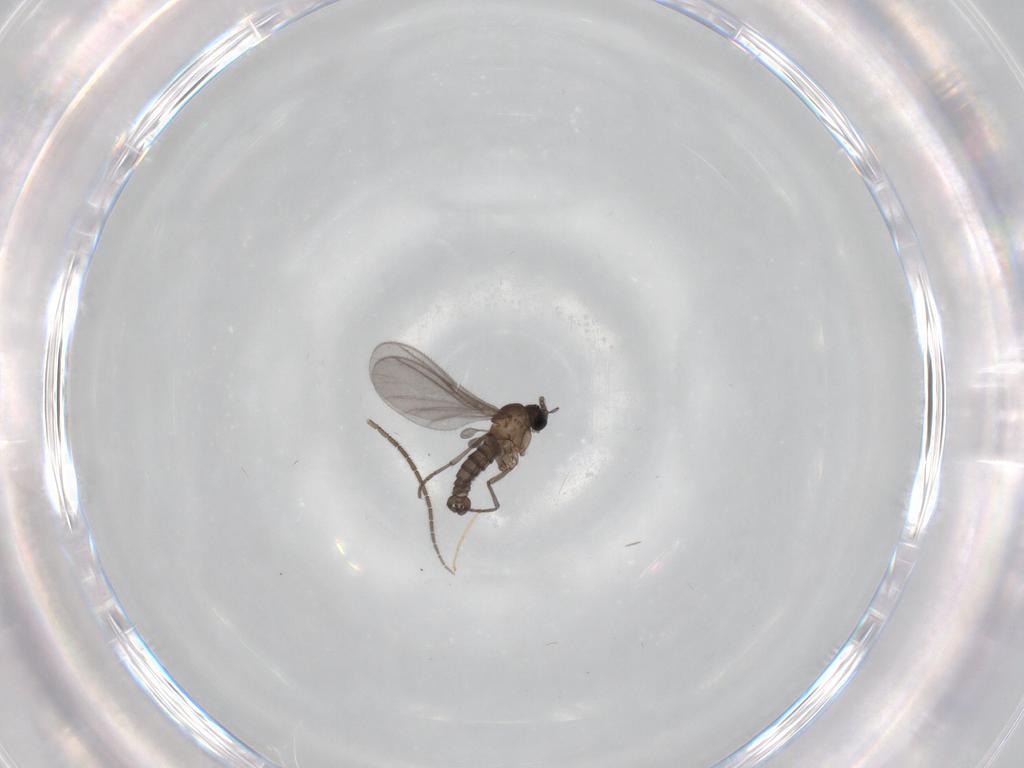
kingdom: Animalia
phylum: Arthropoda
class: Insecta
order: Diptera
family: Sciaridae
